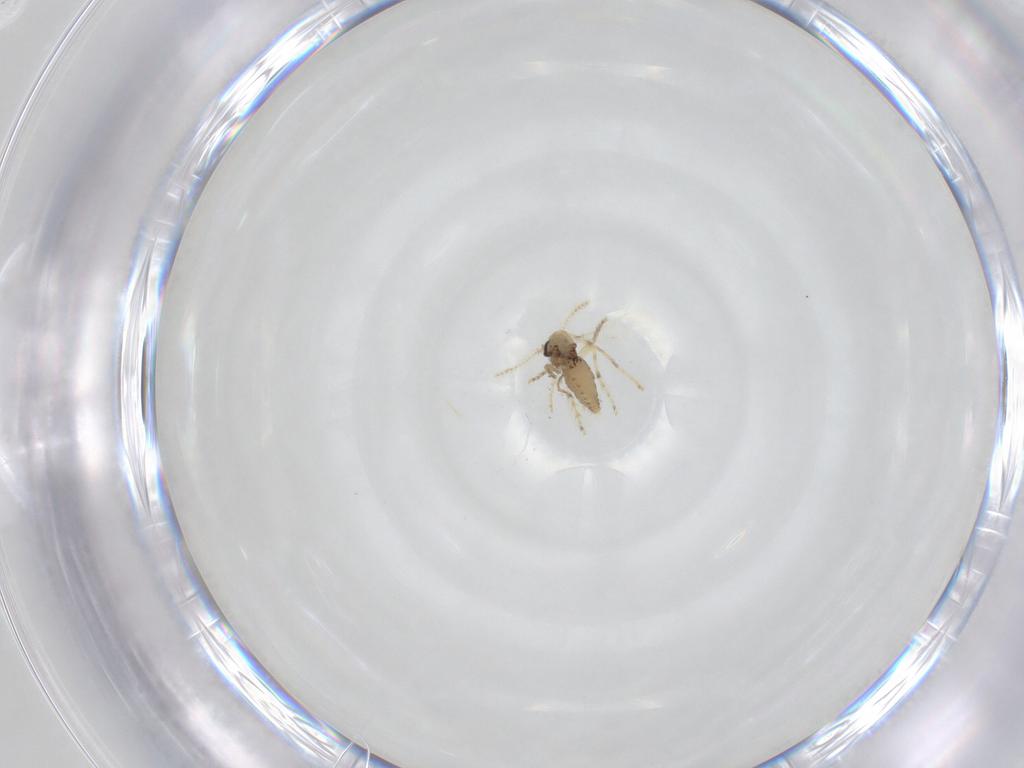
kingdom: Animalia
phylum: Arthropoda
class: Insecta
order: Diptera
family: Ceratopogonidae
